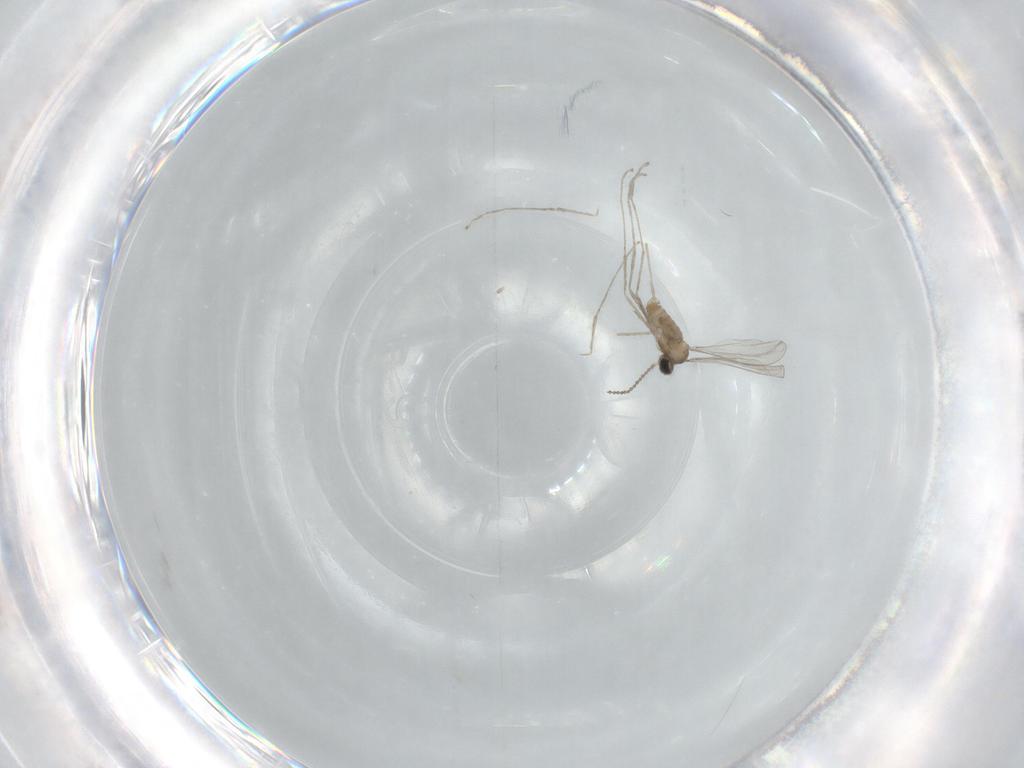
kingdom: Animalia
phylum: Arthropoda
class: Insecta
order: Diptera
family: Cecidomyiidae
